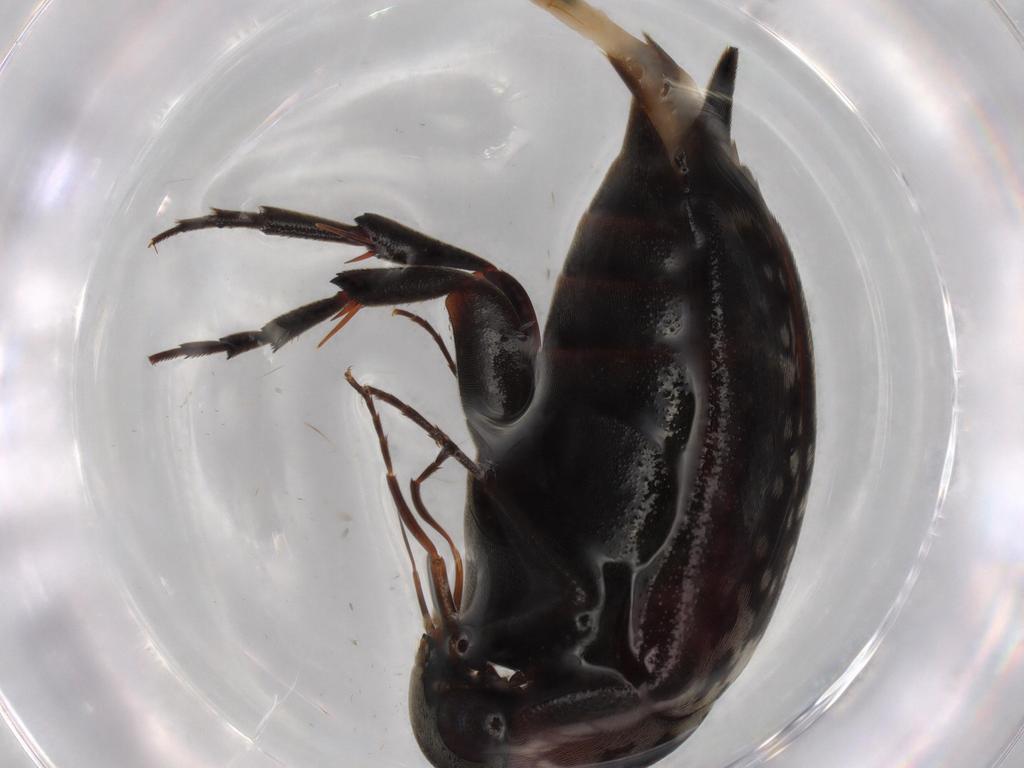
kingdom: Animalia
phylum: Arthropoda
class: Insecta
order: Coleoptera
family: Mordellidae
